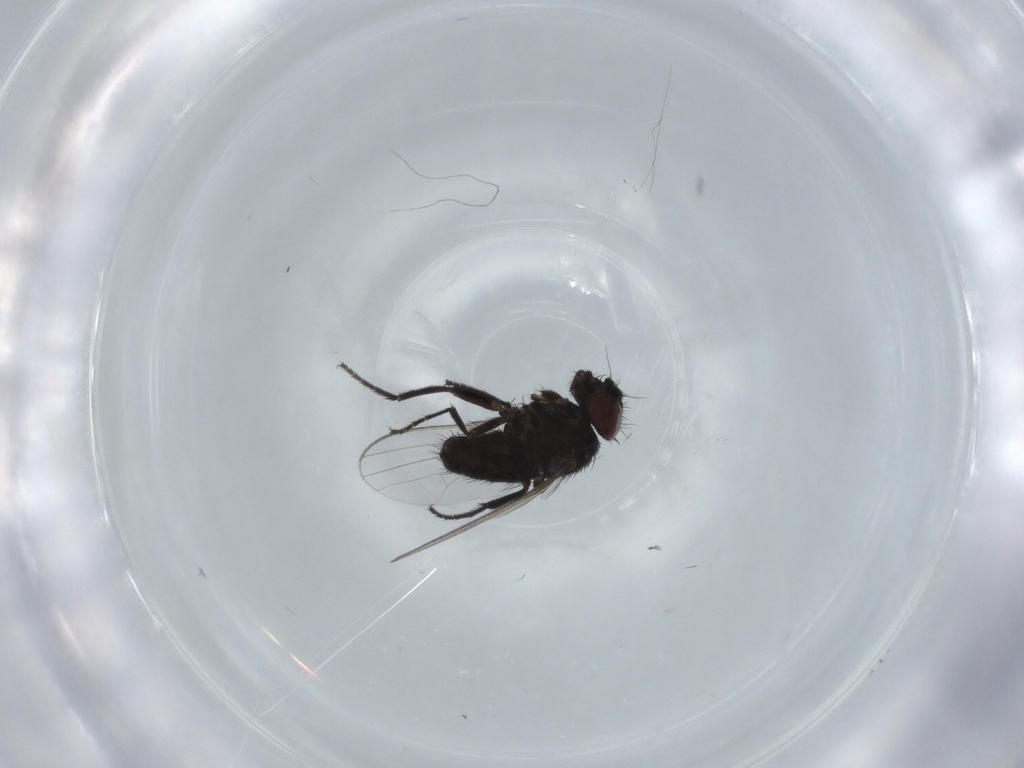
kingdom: Animalia
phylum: Arthropoda
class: Insecta
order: Diptera
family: Milichiidae
